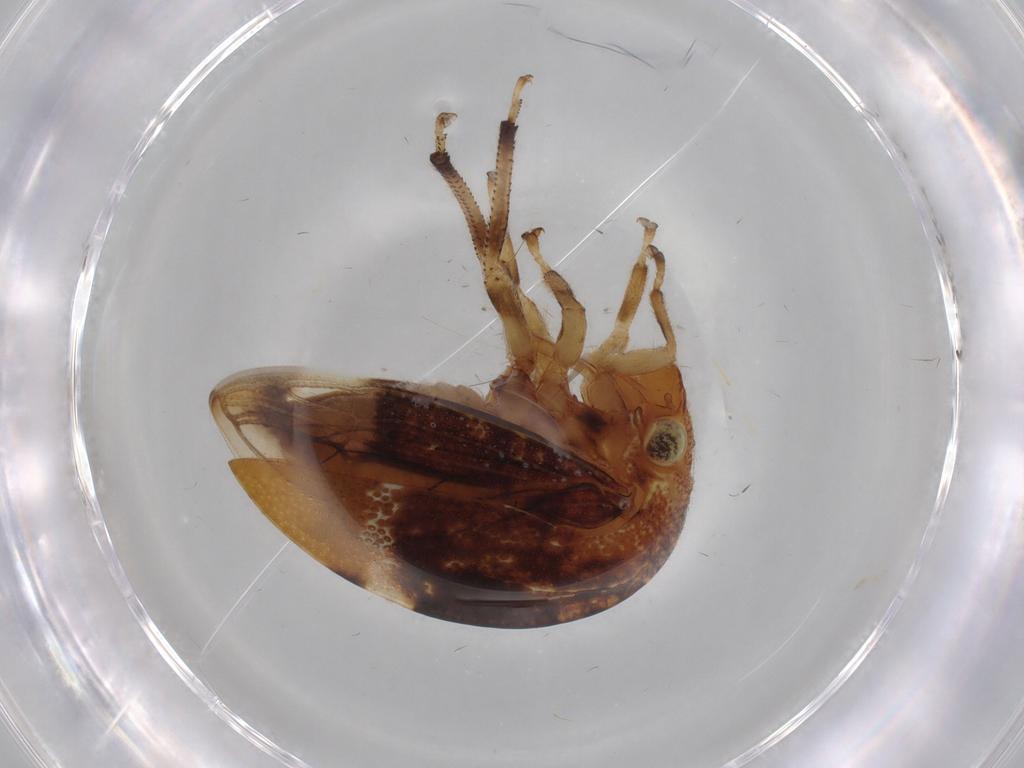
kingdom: Animalia
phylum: Arthropoda
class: Insecta
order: Hemiptera
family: Membracidae
